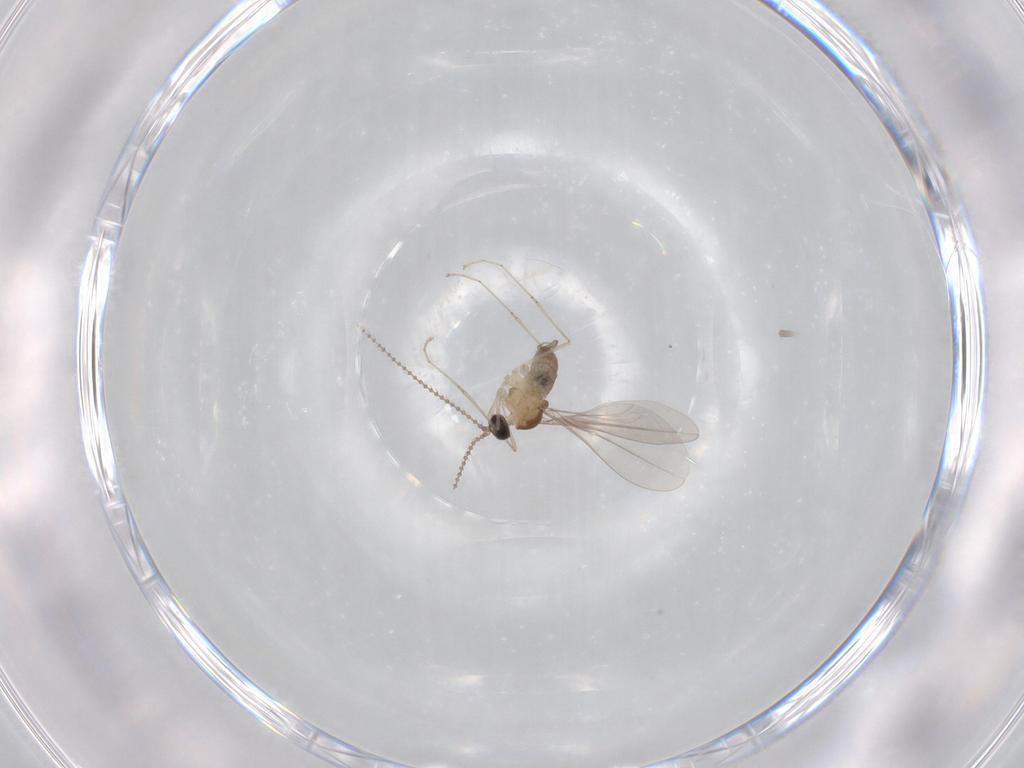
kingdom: Animalia
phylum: Arthropoda
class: Insecta
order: Diptera
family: Cecidomyiidae
